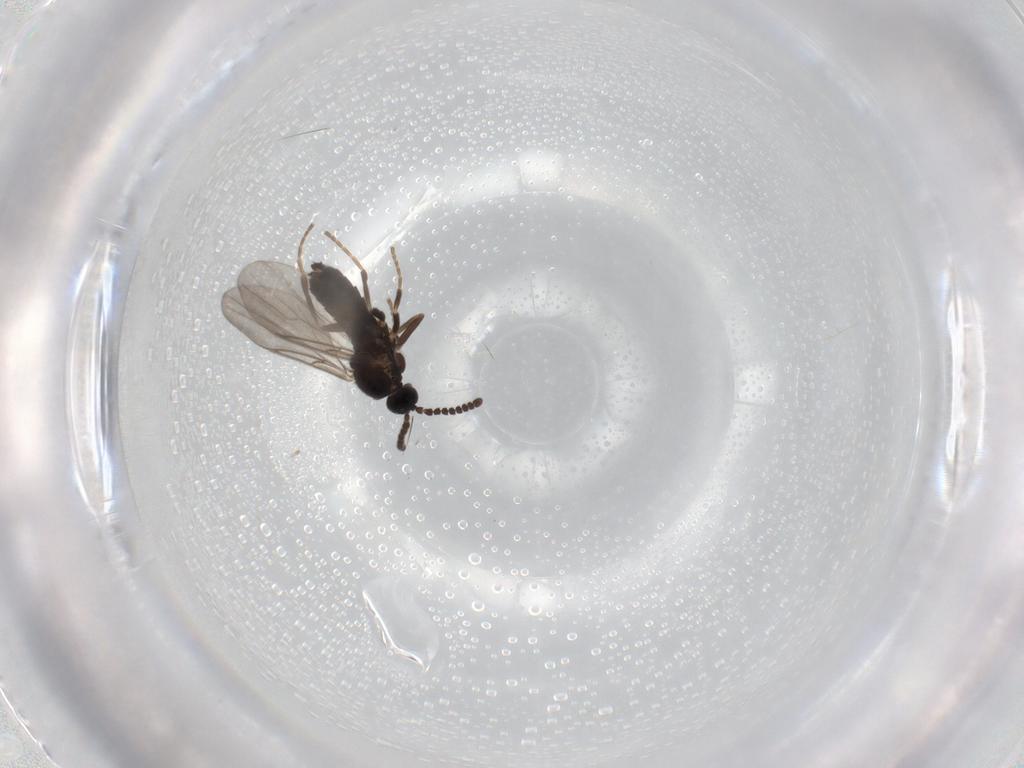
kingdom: Animalia
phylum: Arthropoda
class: Insecta
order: Diptera
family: Scatopsidae
